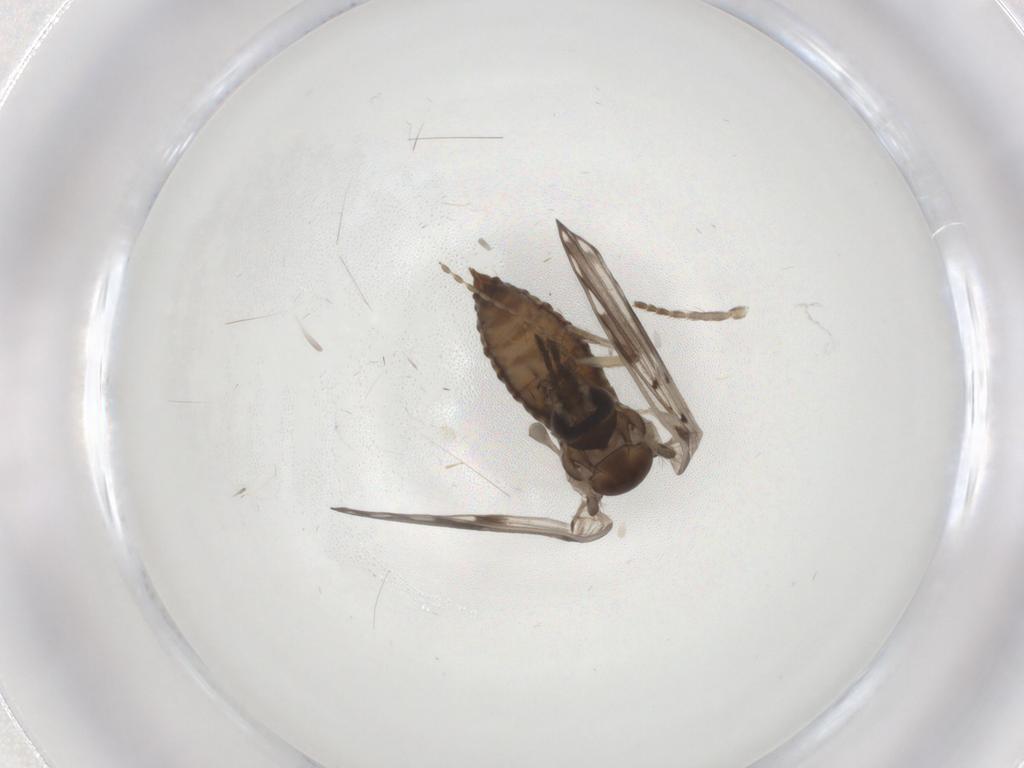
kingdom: Animalia
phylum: Arthropoda
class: Insecta
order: Diptera
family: Psychodidae
